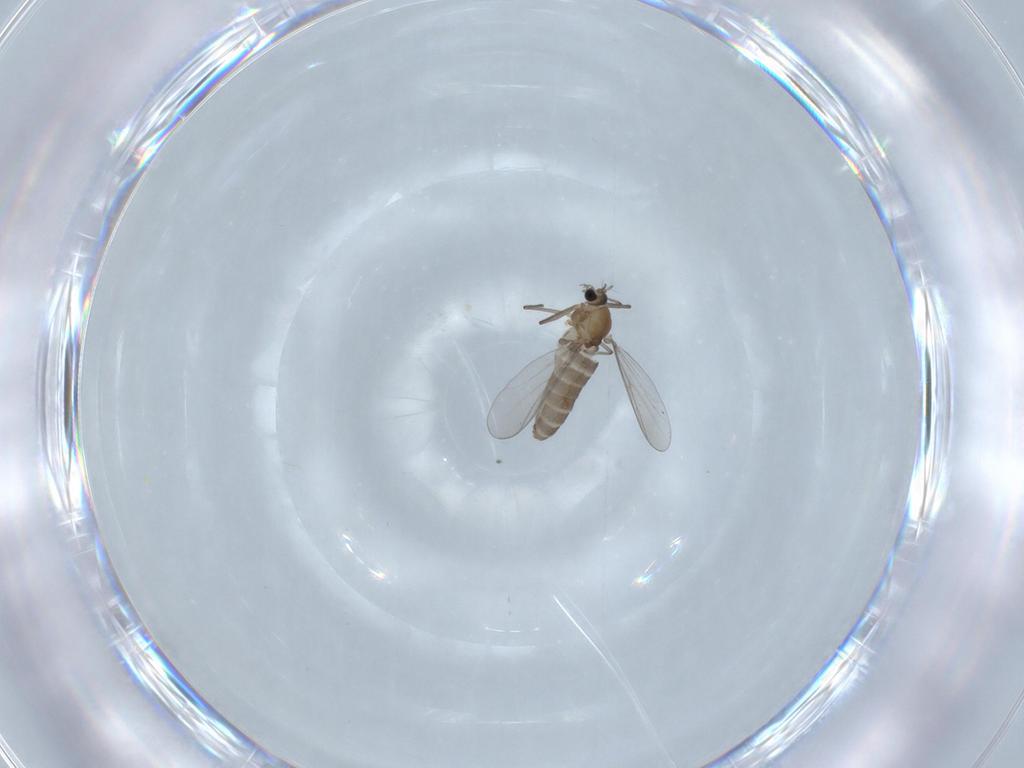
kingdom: Animalia
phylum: Arthropoda
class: Insecta
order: Diptera
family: Chironomidae
